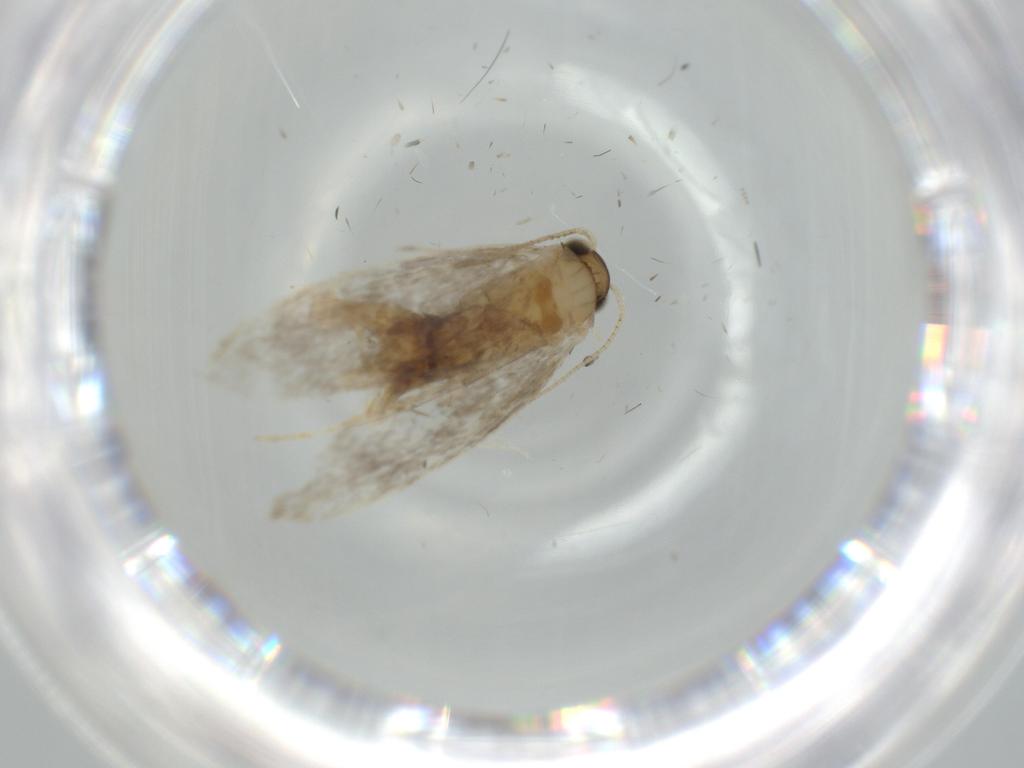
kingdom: Animalia
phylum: Arthropoda
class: Insecta
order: Lepidoptera
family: Tineidae
